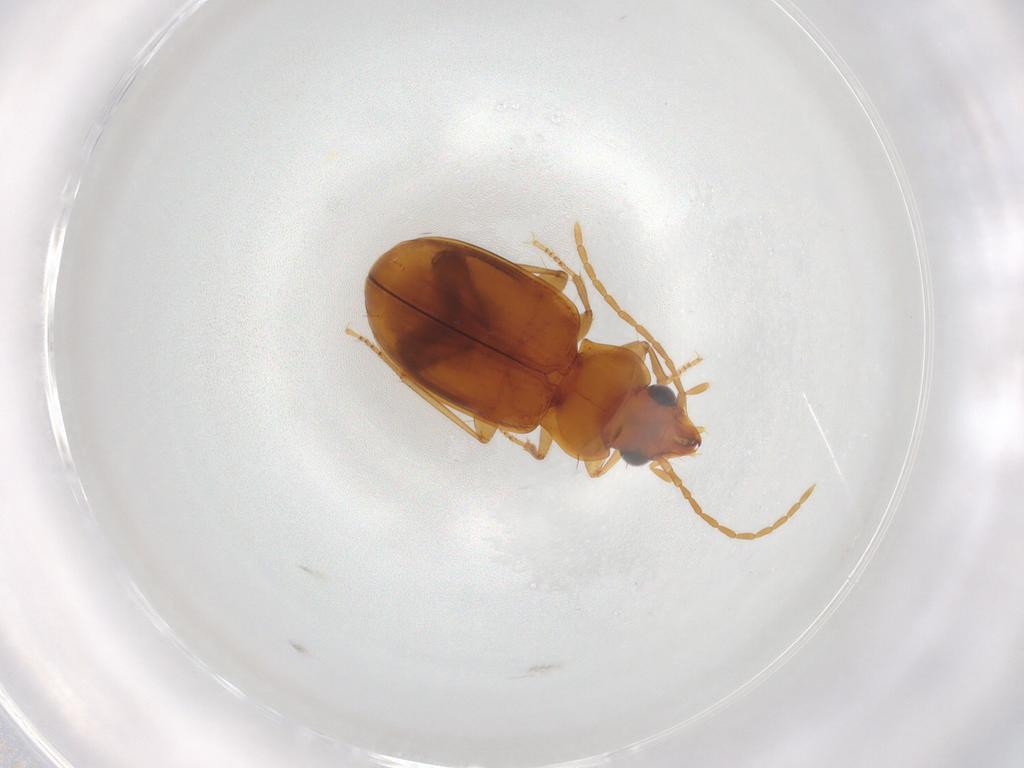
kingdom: Animalia
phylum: Arthropoda
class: Insecta
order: Coleoptera
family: Carabidae
